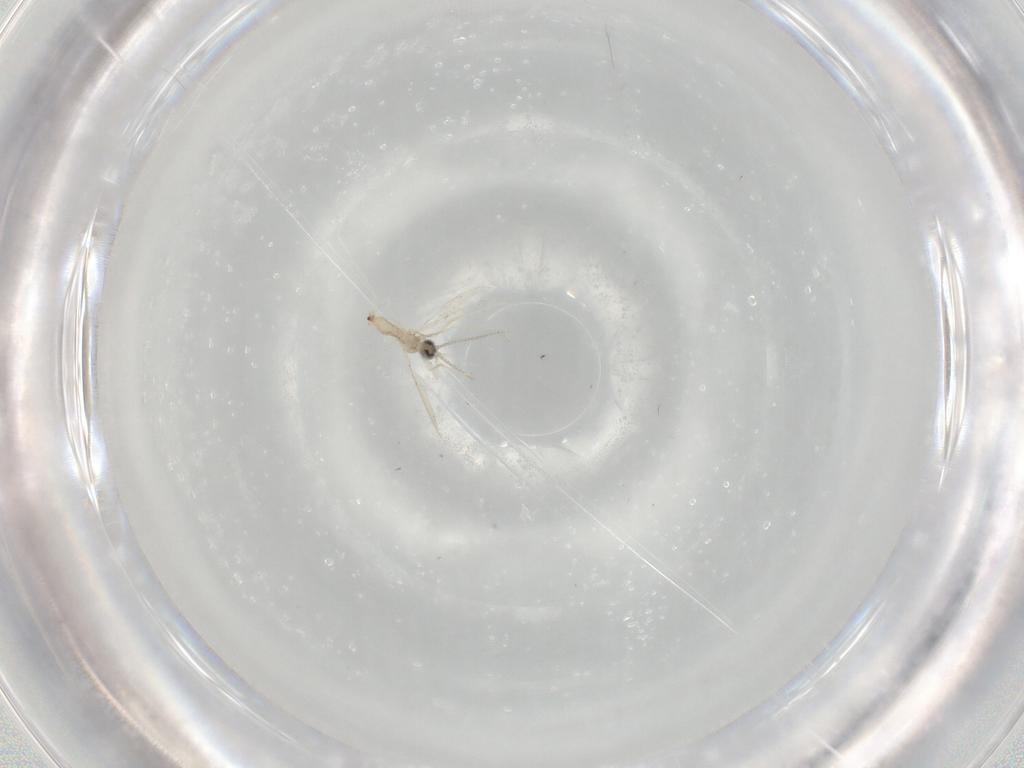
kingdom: Animalia
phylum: Arthropoda
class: Insecta
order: Diptera
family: Cecidomyiidae
